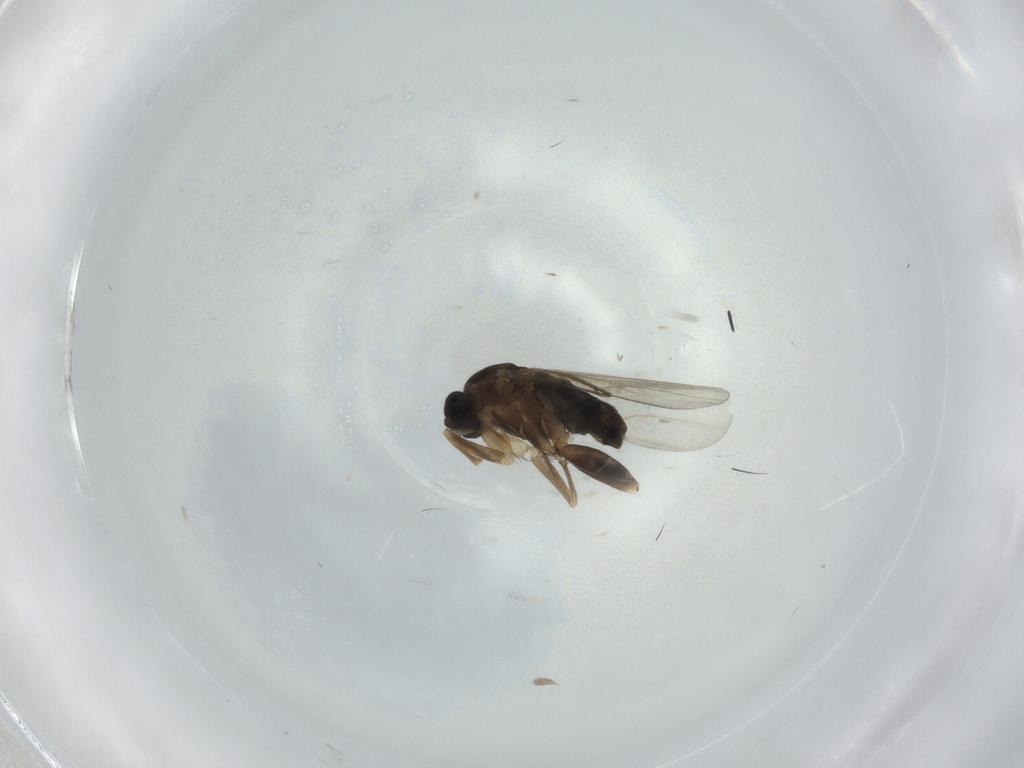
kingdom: Animalia
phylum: Arthropoda
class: Insecta
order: Diptera
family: Phoridae
